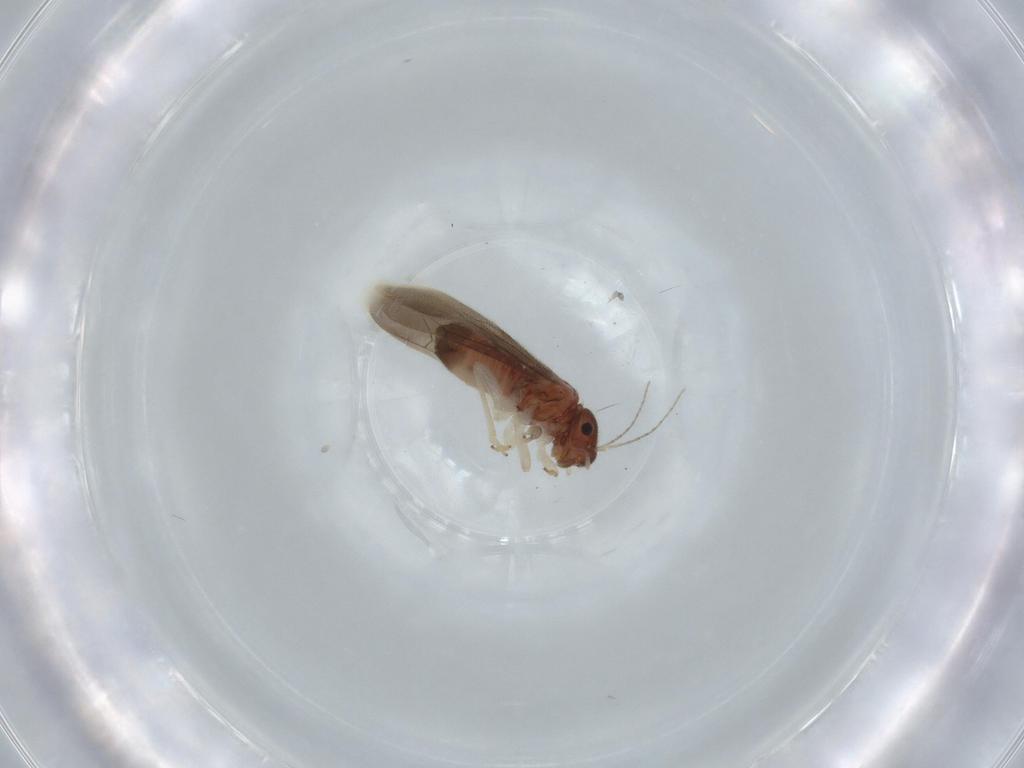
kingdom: Animalia
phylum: Arthropoda
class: Insecta
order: Psocodea
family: Archipsocidae
